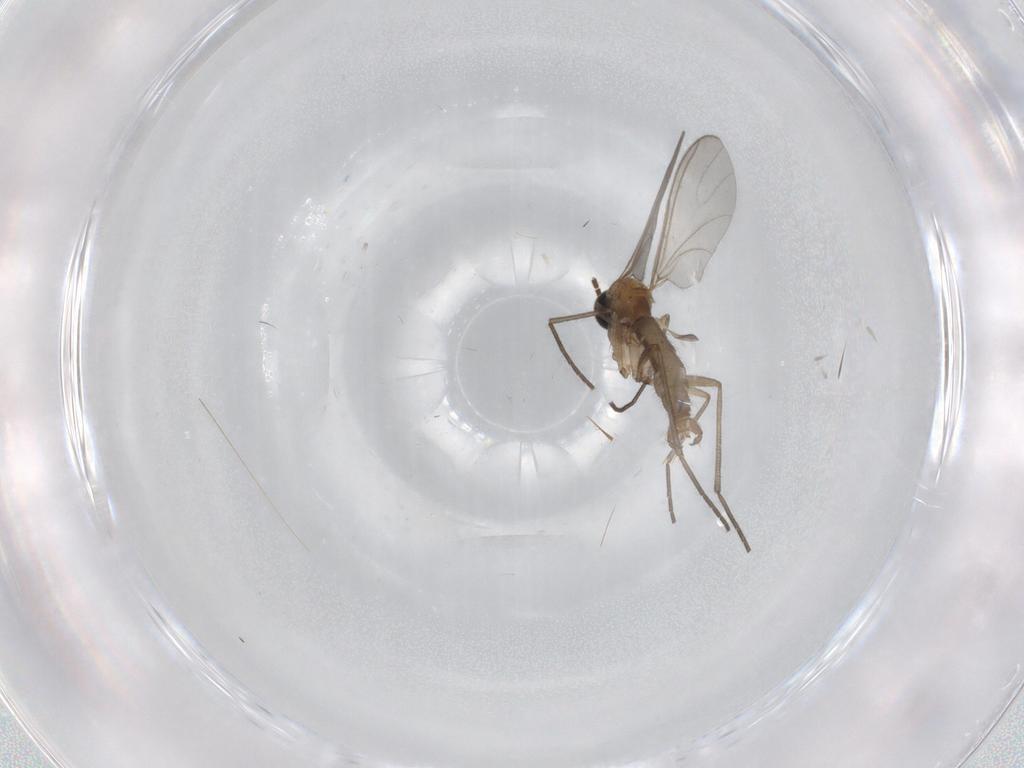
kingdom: Animalia
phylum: Arthropoda
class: Insecta
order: Diptera
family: Sciaridae
